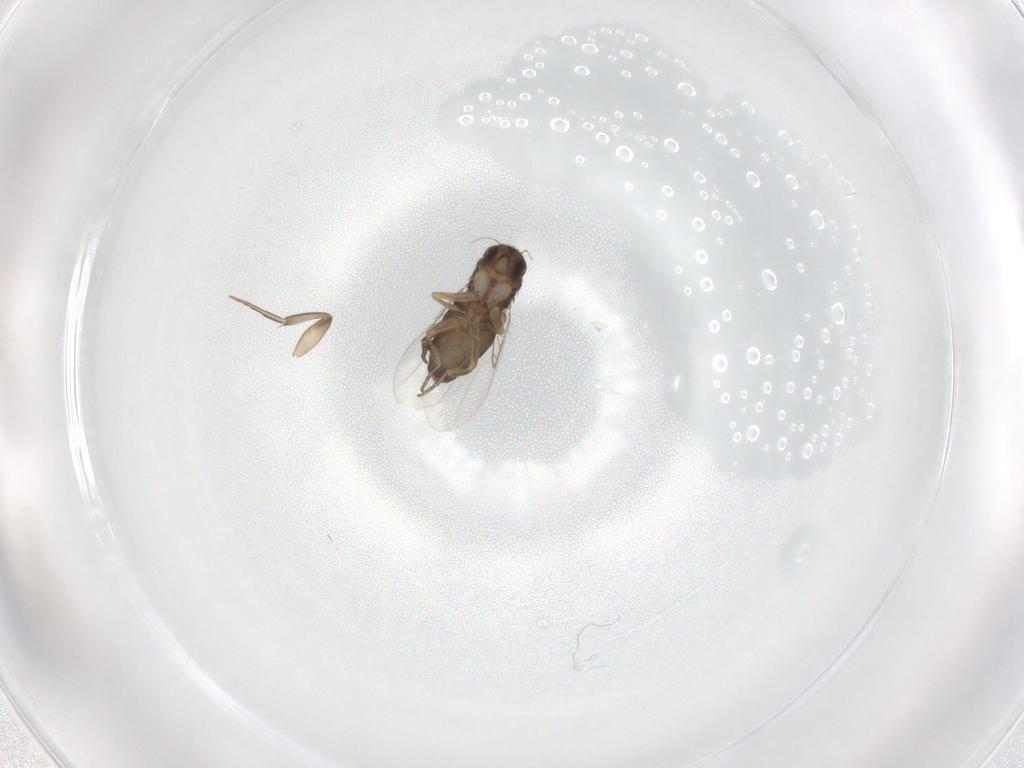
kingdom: Animalia
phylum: Arthropoda
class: Insecta
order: Diptera
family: Phoridae
